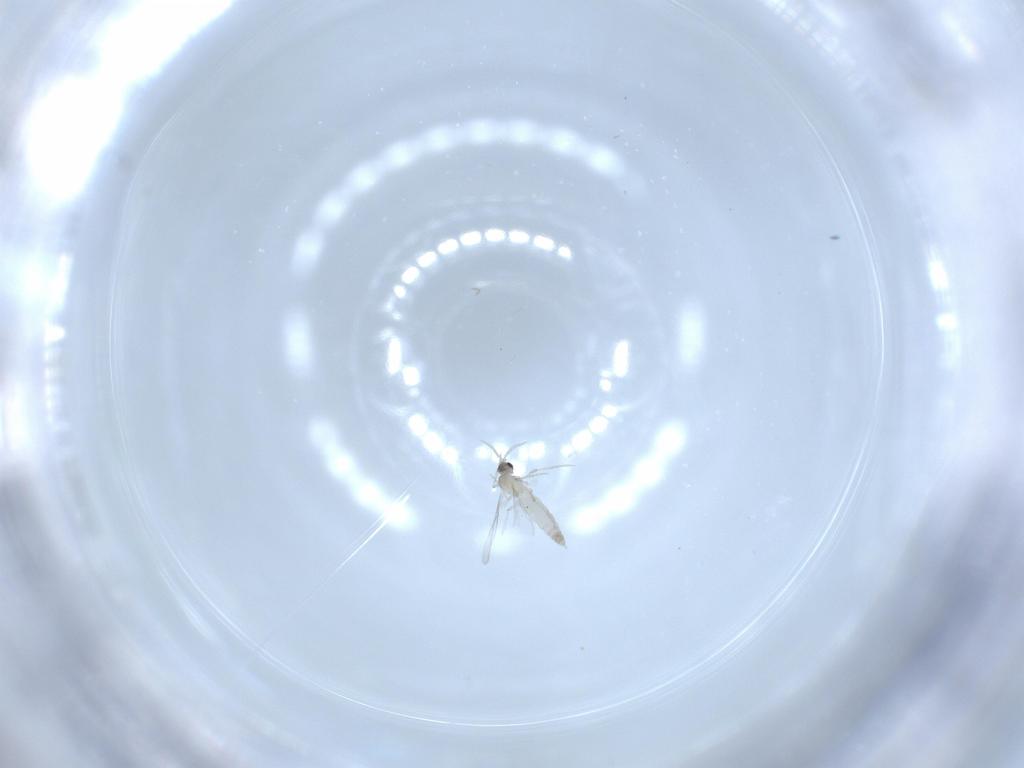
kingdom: Animalia
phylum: Arthropoda
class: Insecta
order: Diptera
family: Cecidomyiidae
